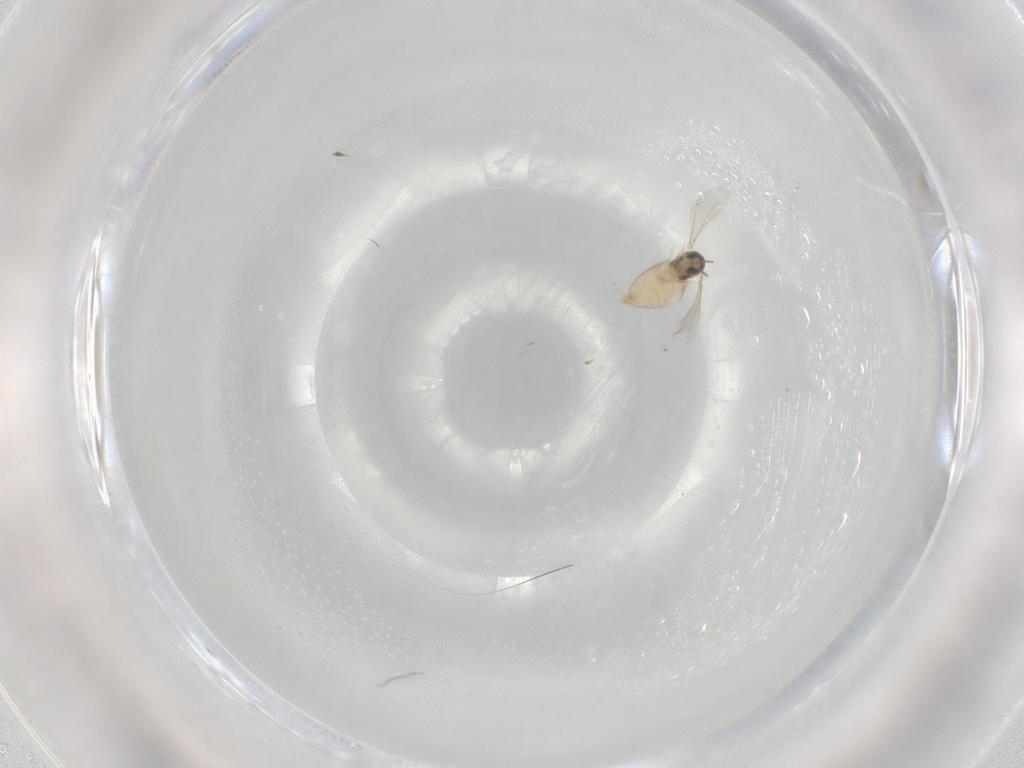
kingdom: Animalia
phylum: Arthropoda
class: Insecta
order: Diptera
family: Cecidomyiidae
